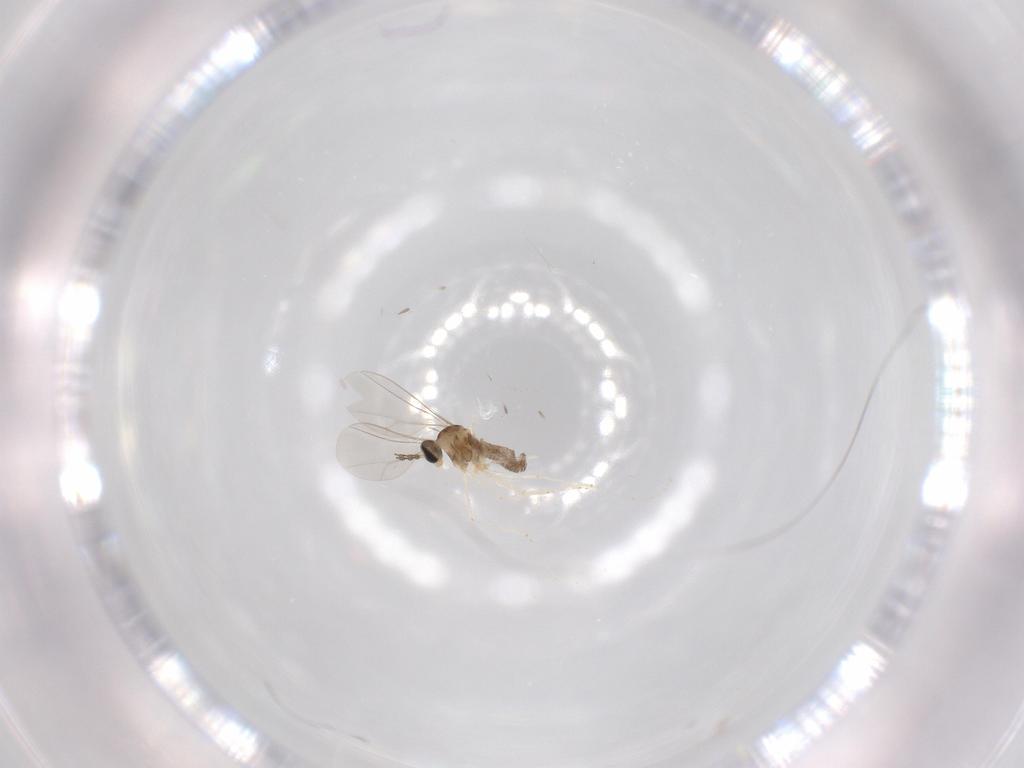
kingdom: Animalia
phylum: Arthropoda
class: Insecta
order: Diptera
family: Cecidomyiidae
